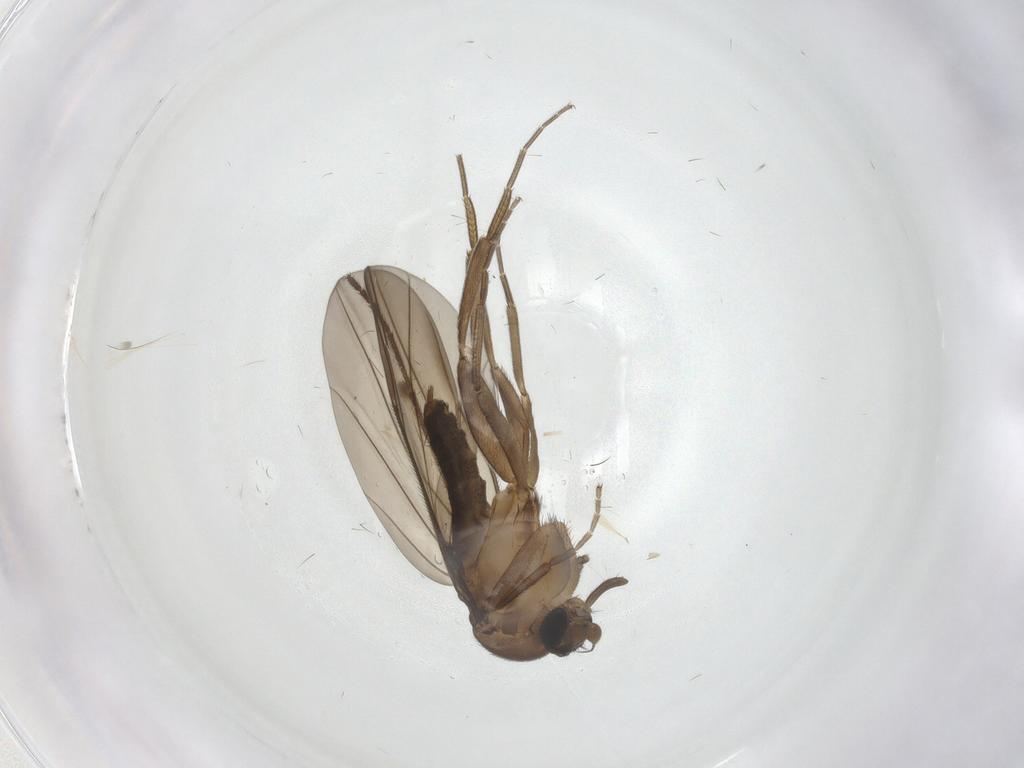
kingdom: Animalia
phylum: Arthropoda
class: Insecta
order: Diptera
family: Phoridae
